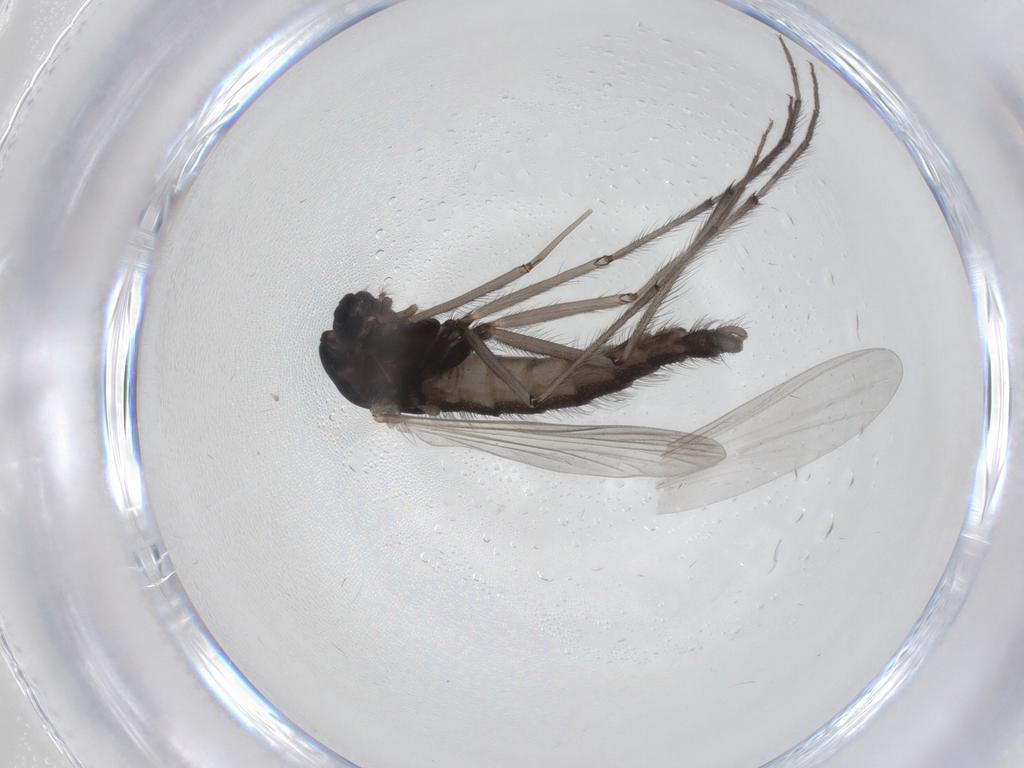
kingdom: Animalia
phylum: Arthropoda
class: Insecta
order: Diptera
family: Chironomidae
